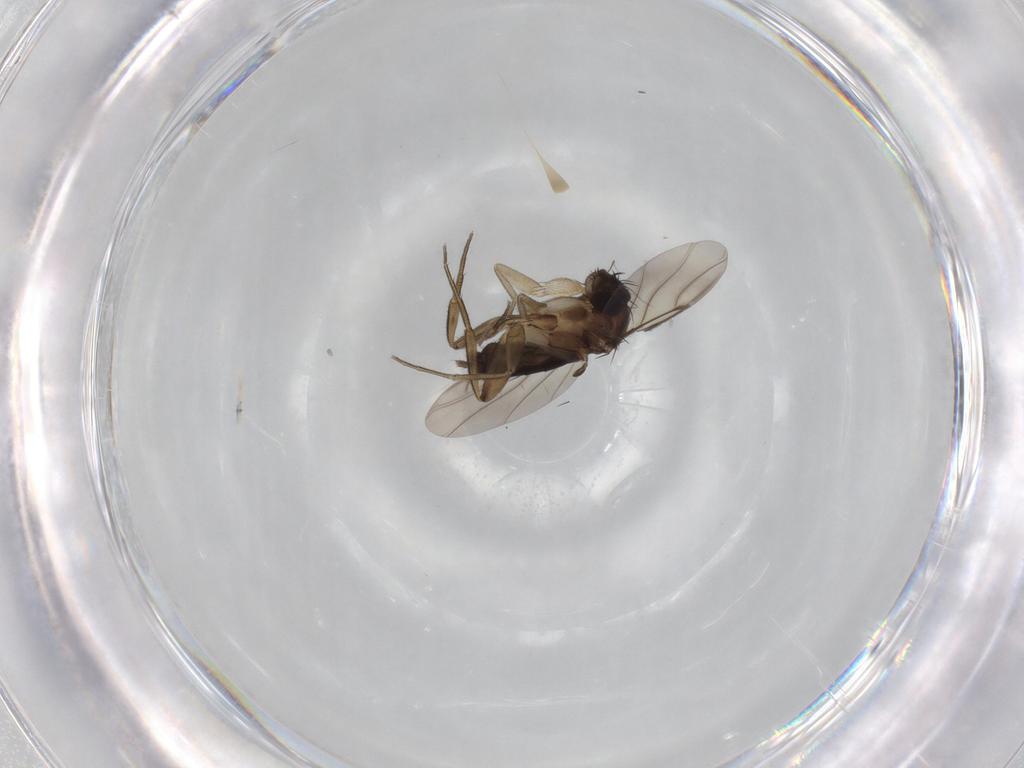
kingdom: Animalia
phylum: Arthropoda
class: Insecta
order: Diptera
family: Phoridae
